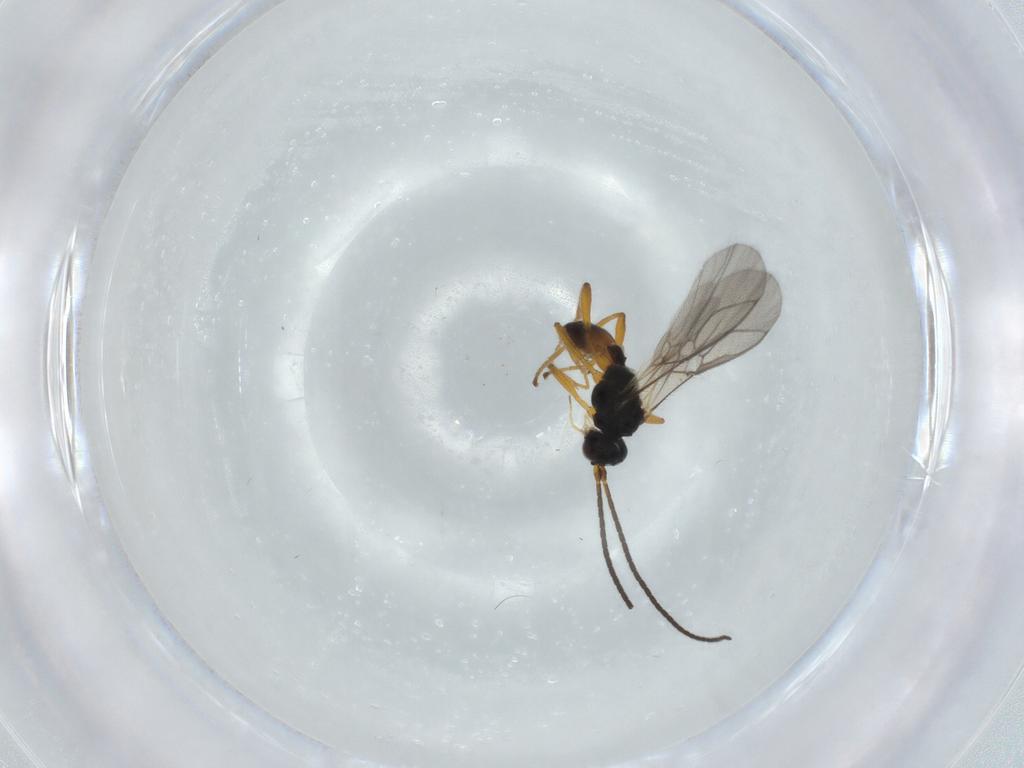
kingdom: Animalia
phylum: Arthropoda
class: Insecta
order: Hymenoptera
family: Braconidae
